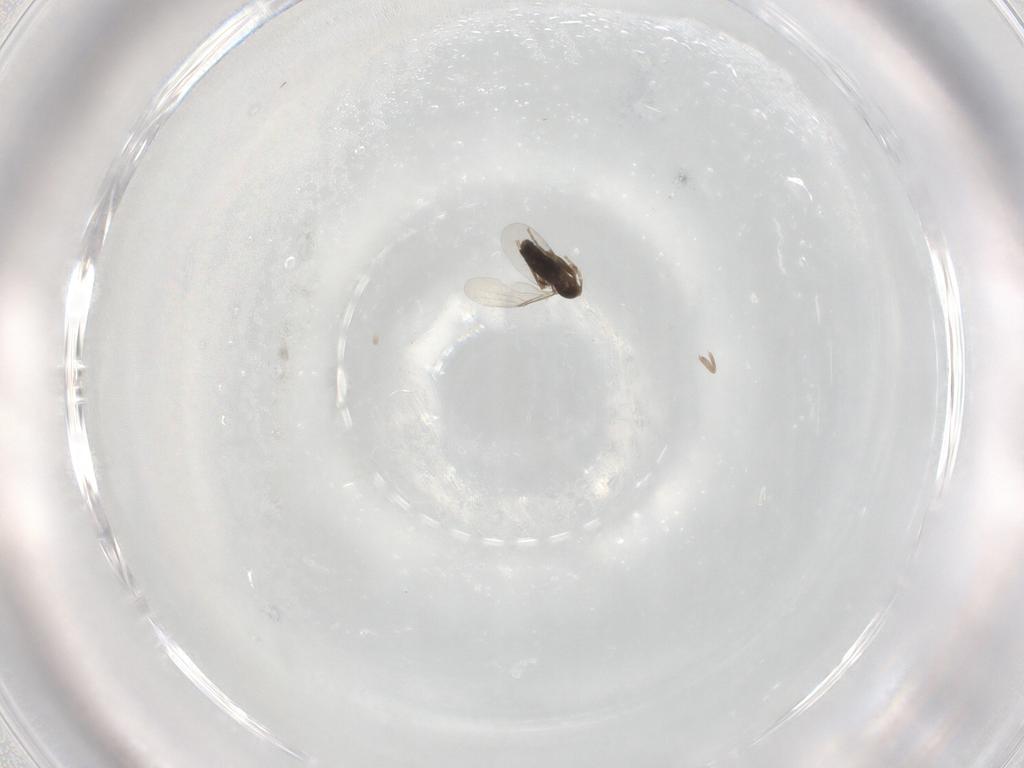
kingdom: Animalia
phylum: Arthropoda
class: Insecta
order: Diptera
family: Phoridae
